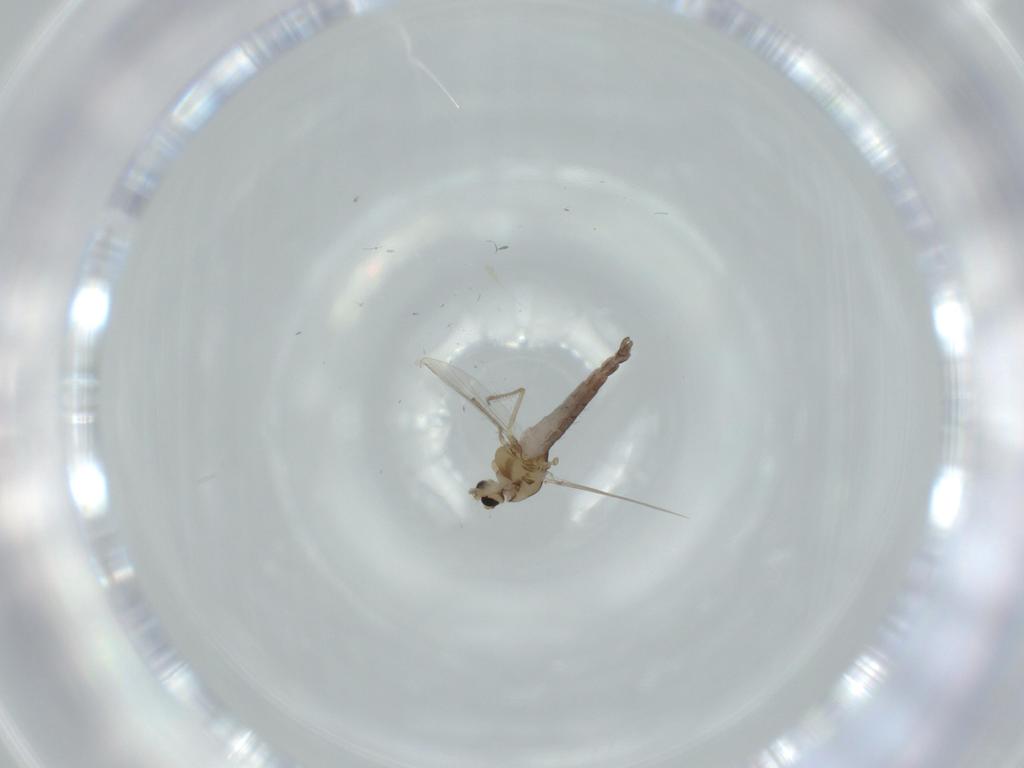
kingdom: Animalia
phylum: Arthropoda
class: Insecta
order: Diptera
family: Chironomidae
